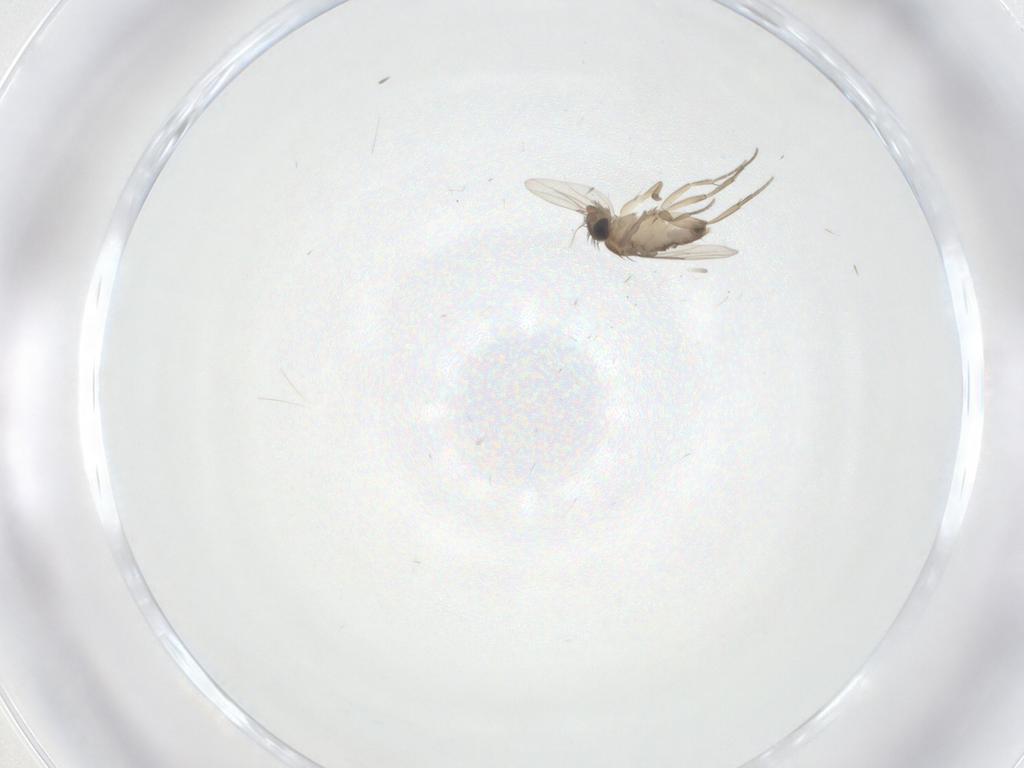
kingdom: Animalia
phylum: Arthropoda
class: Insecta
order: Diptera
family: Phoridae
